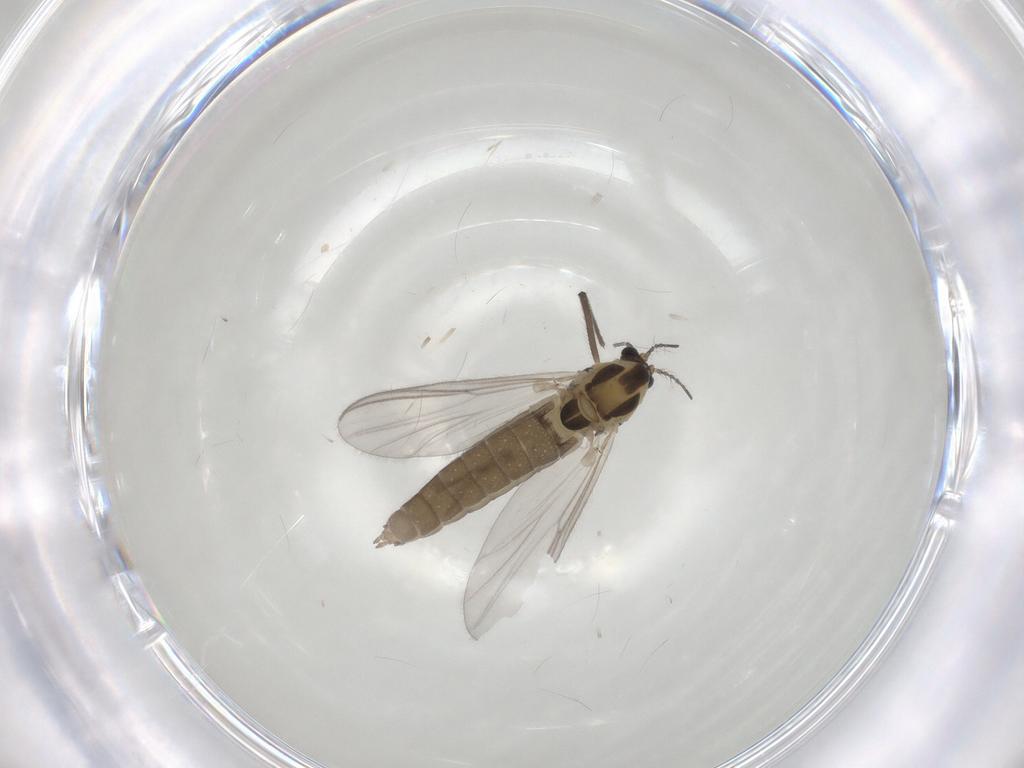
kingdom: Animalia
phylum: Arthropoda
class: Insecta
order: Diptera
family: Chironomidae
